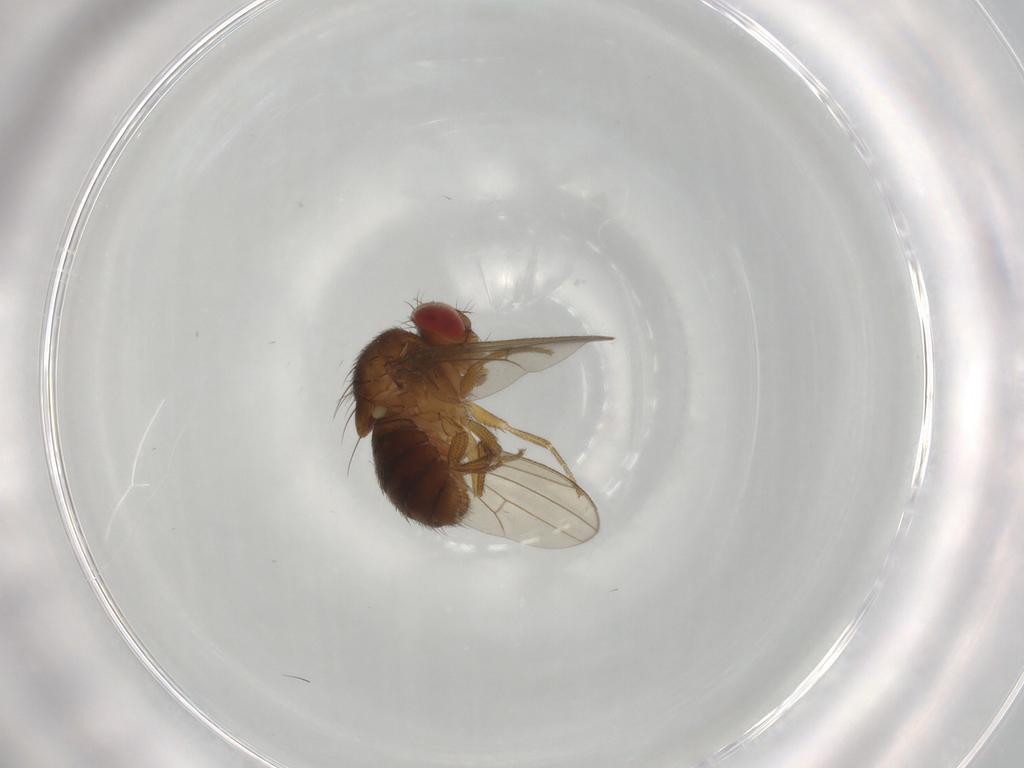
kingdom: Animalia
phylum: Arthropoda
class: Insecta
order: Diptera
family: Drosophilidae
